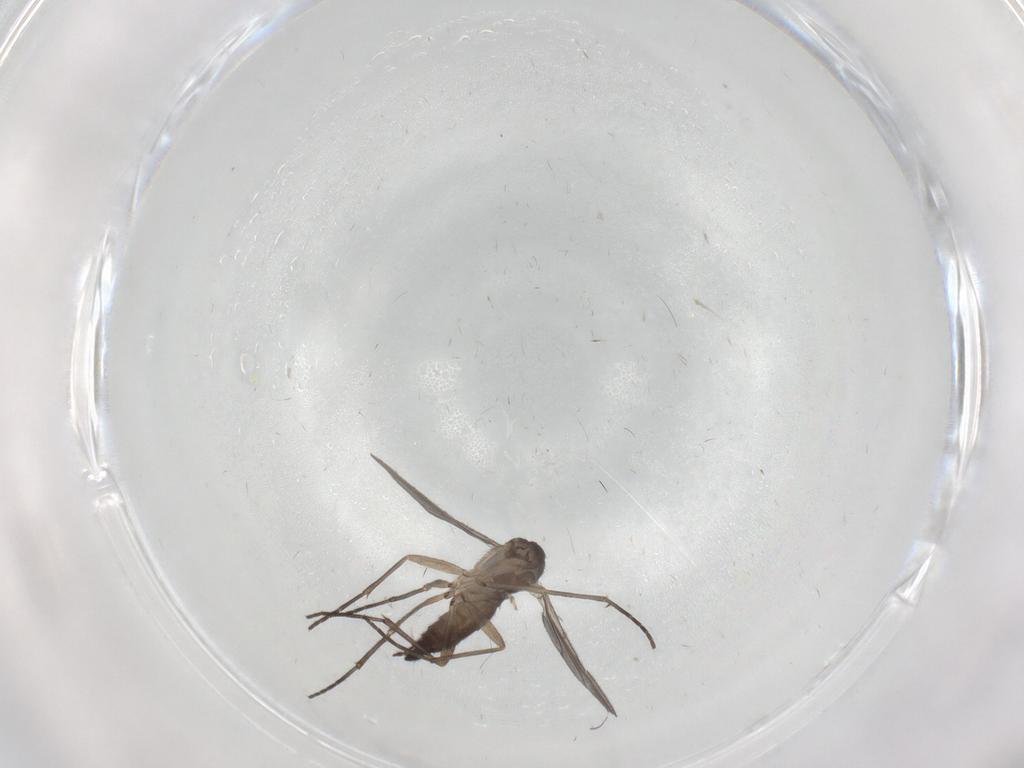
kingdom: Animalia
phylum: Arthropoda
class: Insecta
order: Diptera
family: Sciaridae
